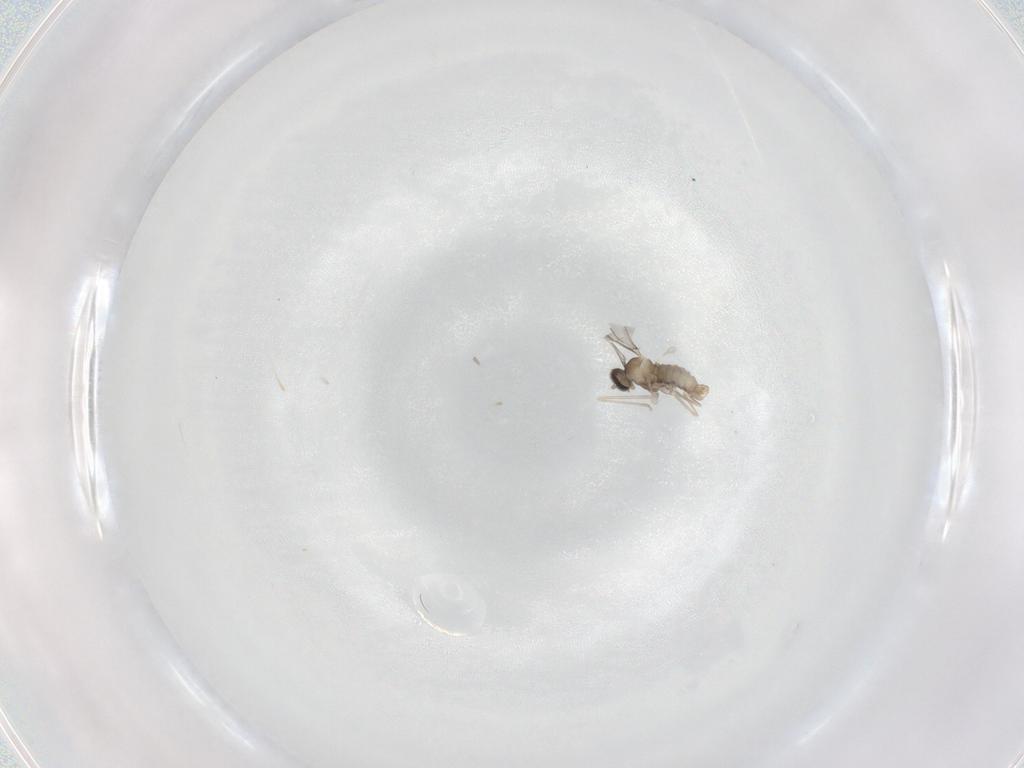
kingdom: Animalia
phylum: Arthropoda
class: Insecta
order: Diptera
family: Cecidomyiidae
